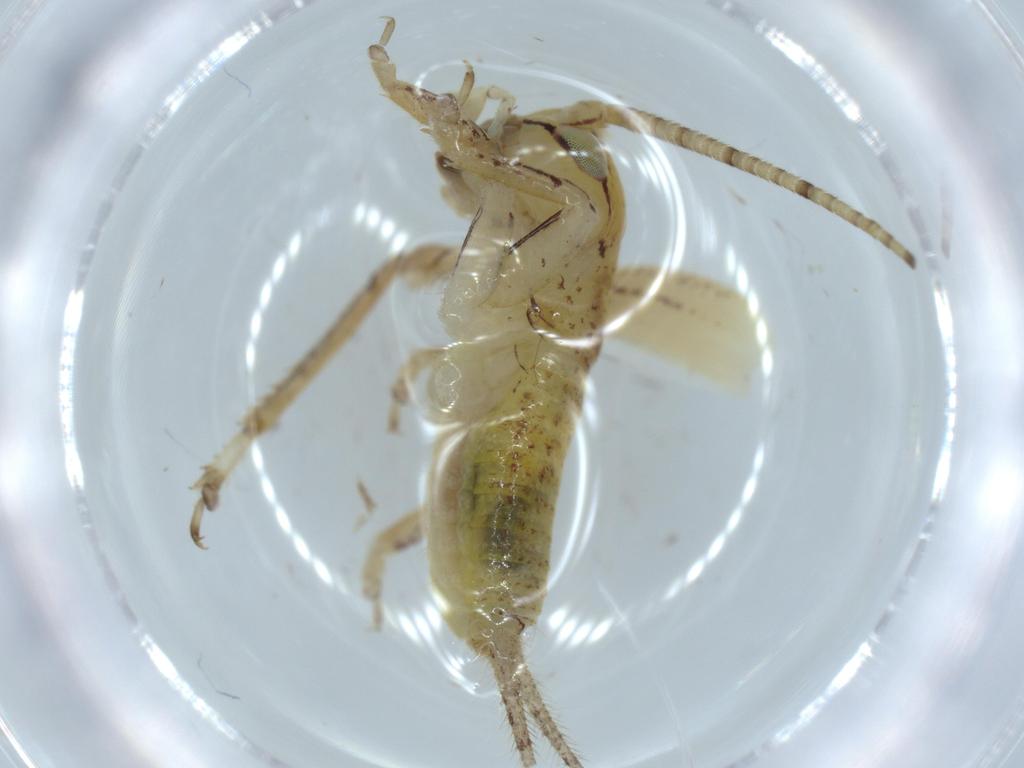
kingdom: Animalia
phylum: Arthropoda
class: Insecta
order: Orthoptera
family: Gryllidae
